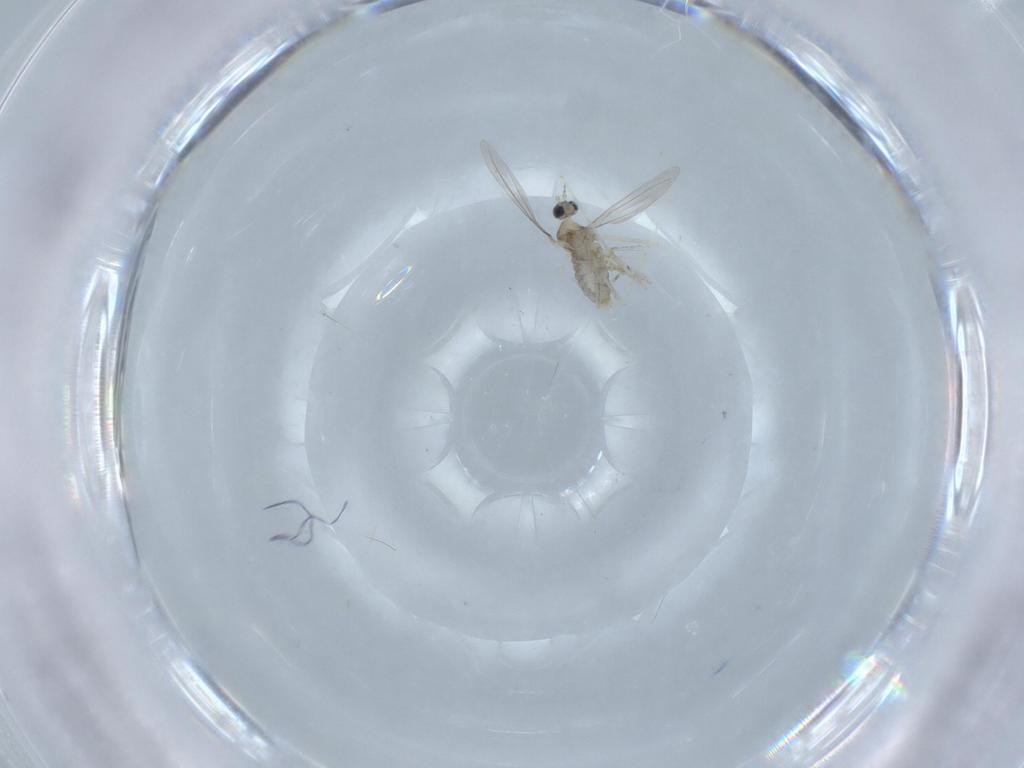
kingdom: Animalia
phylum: Arthropoda
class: Insecta
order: Diptera
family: Cecidomyiidae
